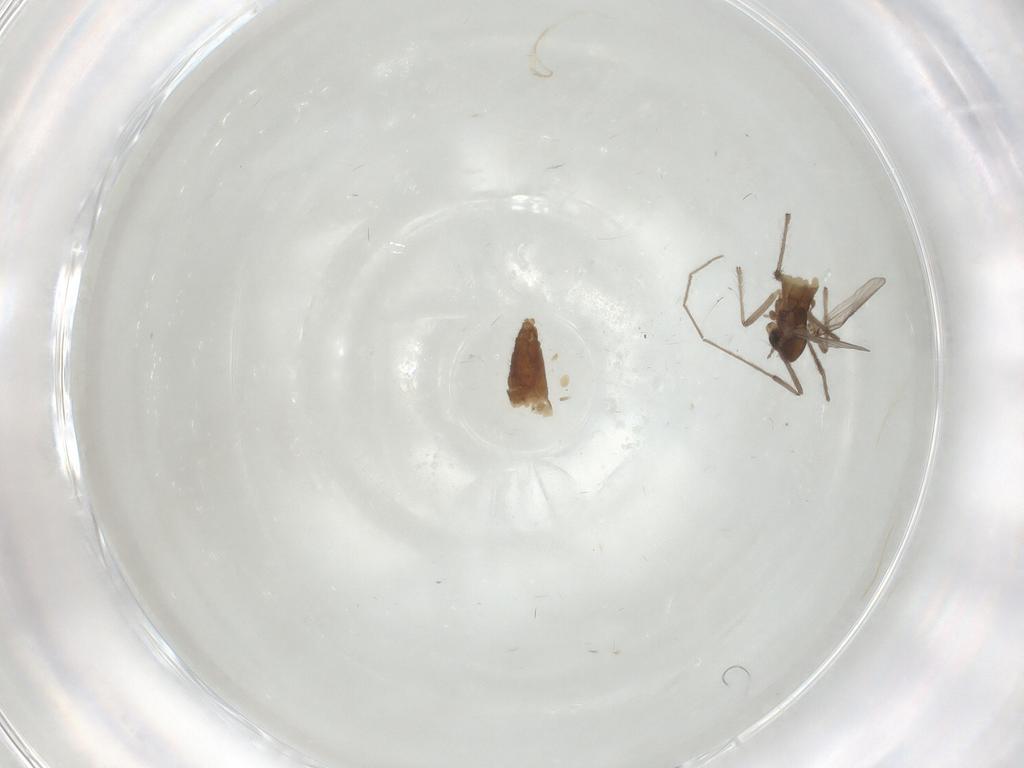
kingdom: Animalia
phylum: Arthropoda
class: Insecta
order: Diptera
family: Chironomidae
